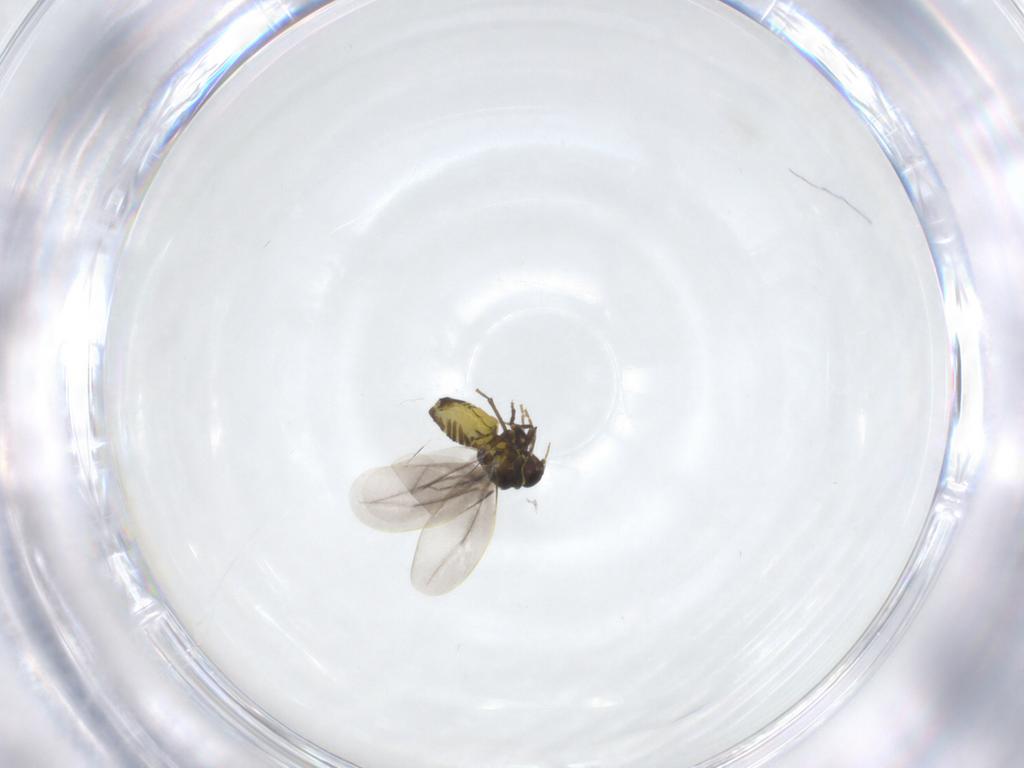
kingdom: Animalia
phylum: Arthropoda
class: Insecta
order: Hemiptera
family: Aleyrodidae
